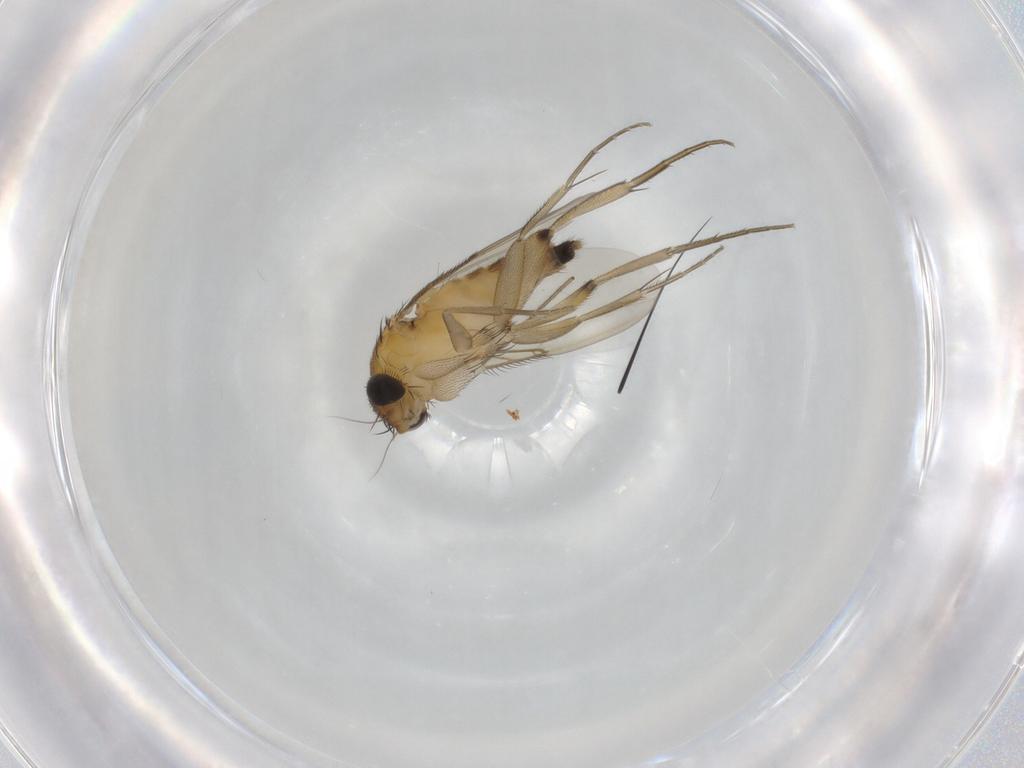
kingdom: Animalia
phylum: Arthropoda
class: Insecta
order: Diptera
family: Phoridae
